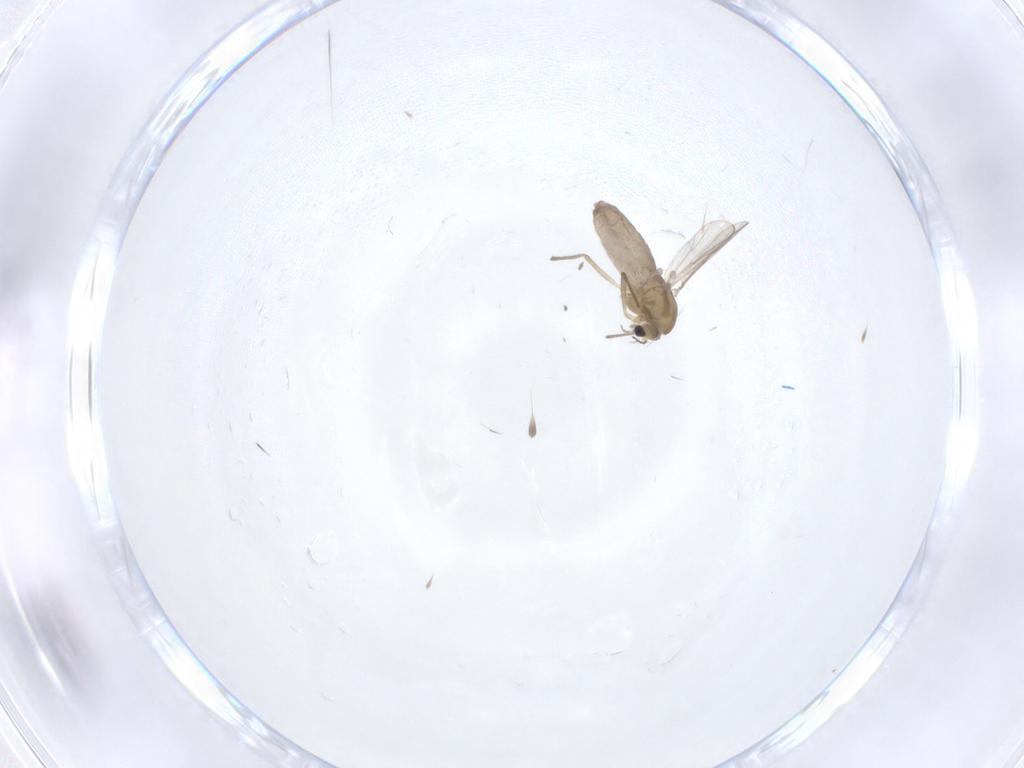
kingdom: Animalia
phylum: Arthropoda
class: Insecta
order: Diptera
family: Chironomidae
